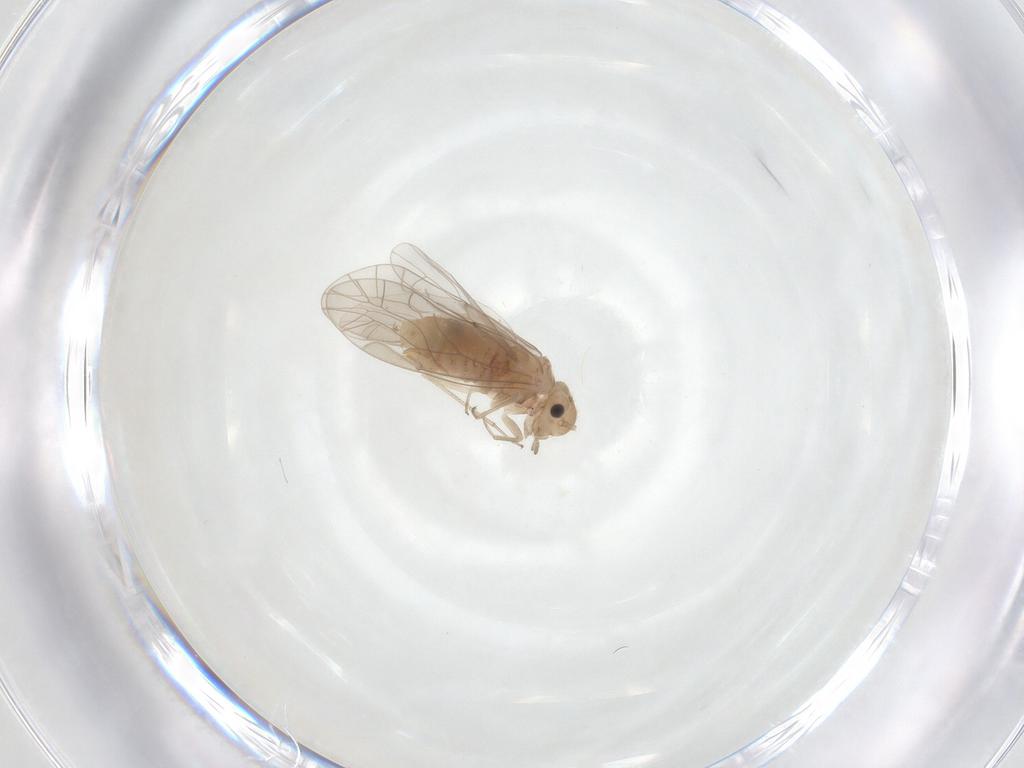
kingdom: Animalia
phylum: Arthropoda
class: Insecta
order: Psocodea
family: Lachesillidae
